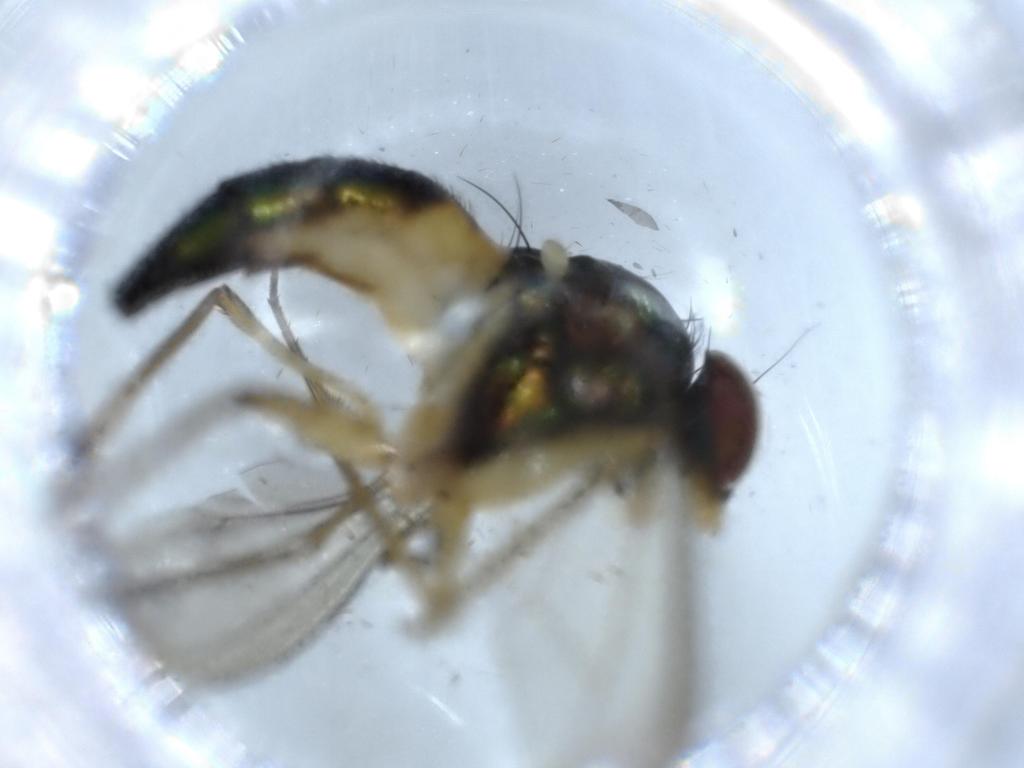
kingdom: Animalia
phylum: Arthropoda
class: Insecta
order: Diptera
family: Dolichopodidae
